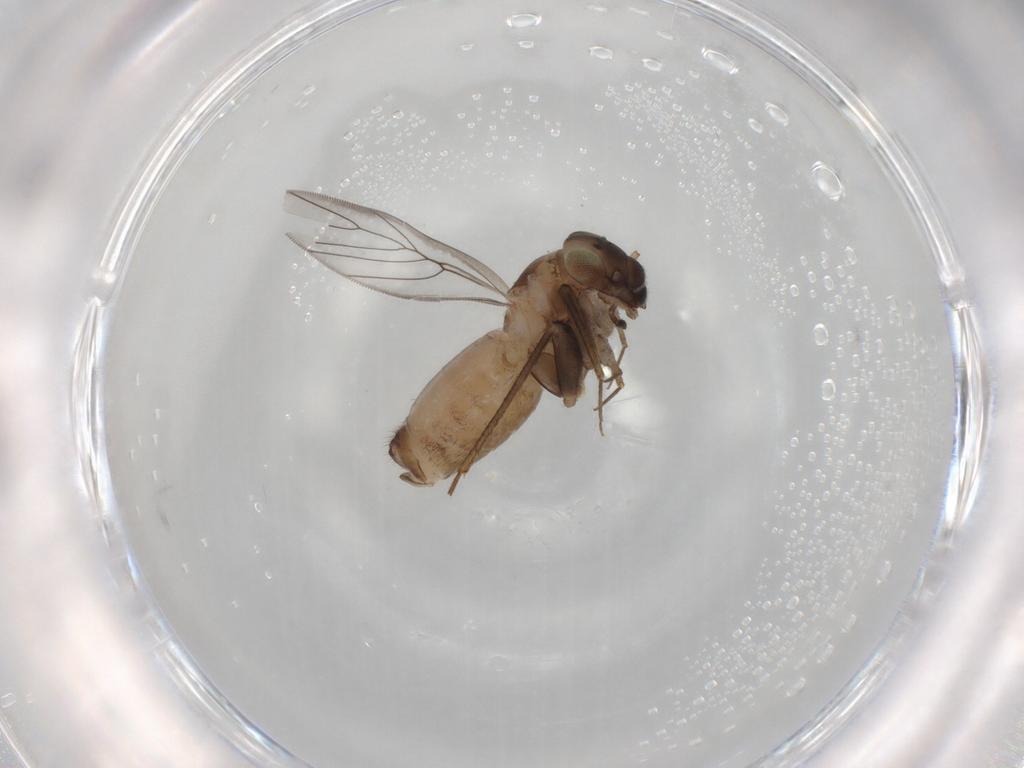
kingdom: Animalia
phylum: Arthropoda
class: Insecta
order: Psocodea
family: Lepidopsocidae
